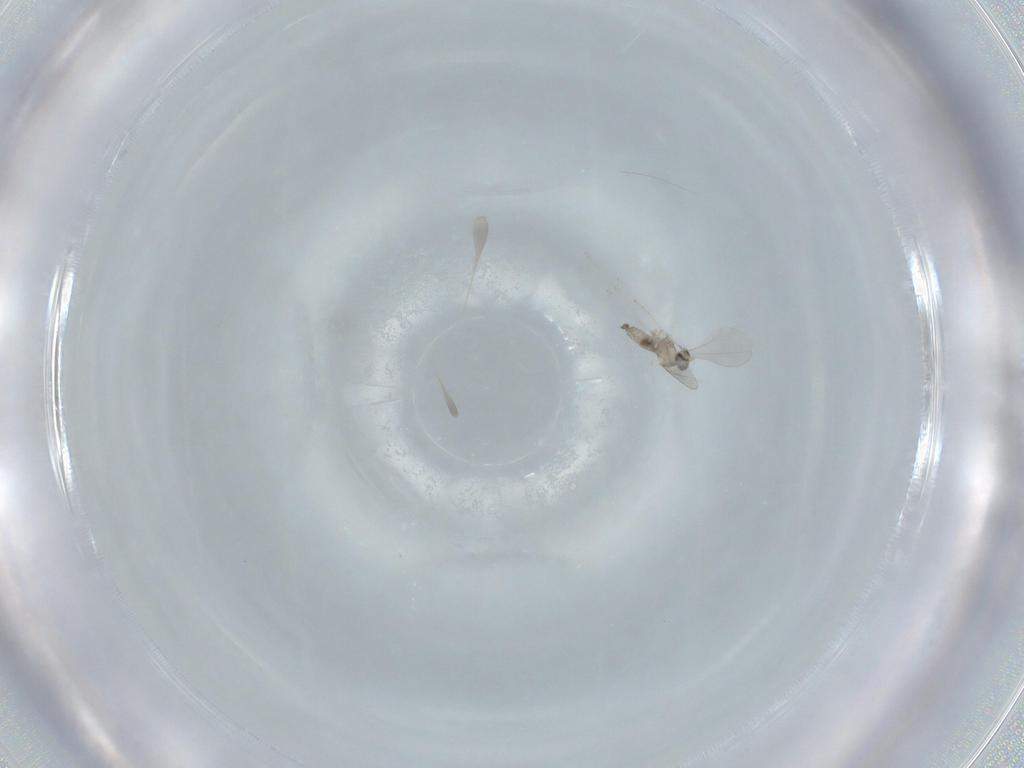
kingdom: Animalia
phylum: Arthropoda
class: Insecta
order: Diptera
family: Cecidomyiidae
